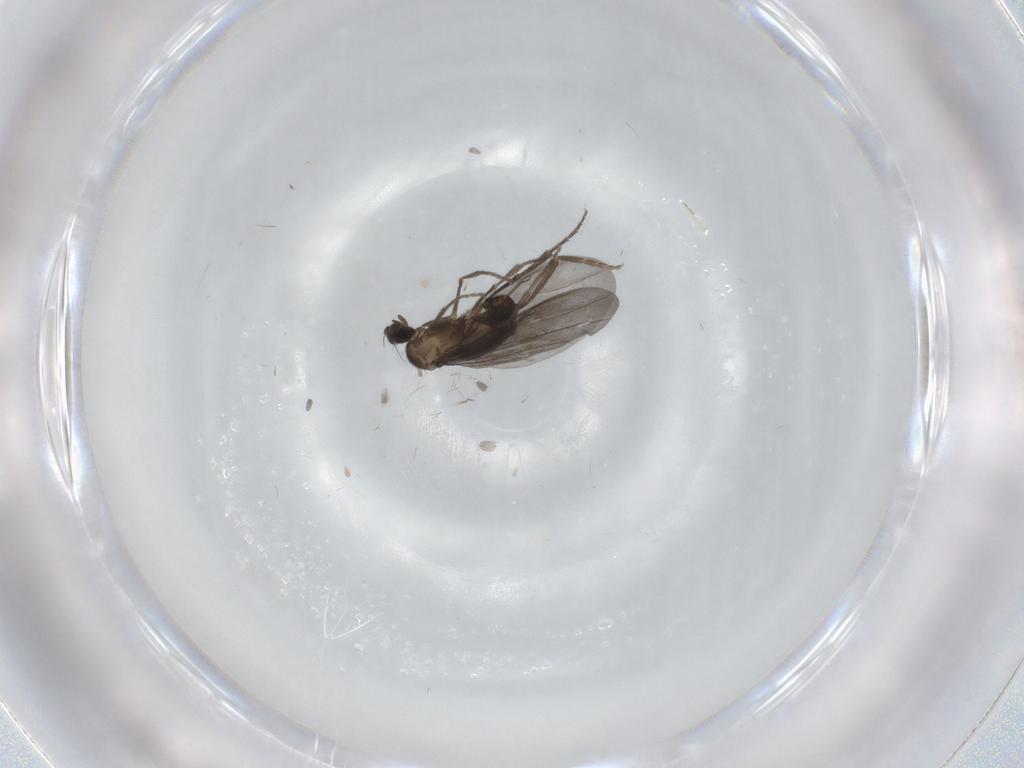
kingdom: Animalia
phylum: Arthropoda
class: Insecta
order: Diptera
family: Phoridae
